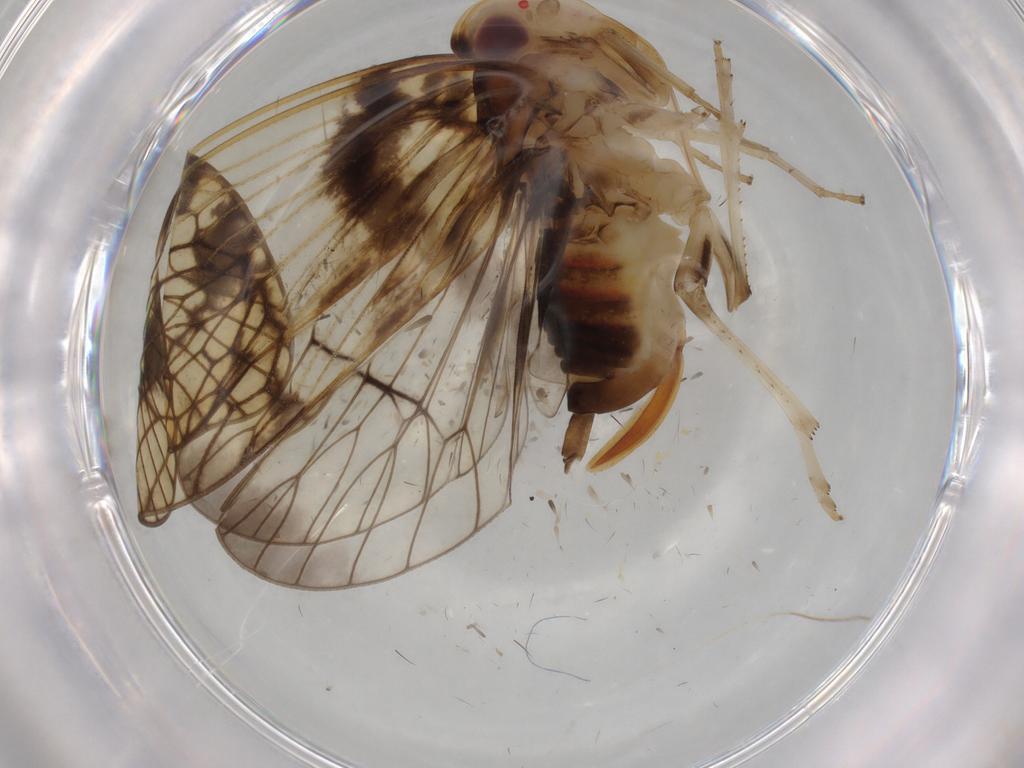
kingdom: Animalia
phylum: Arthropoda
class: Insecta
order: Hemiptera
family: Cixiidae
